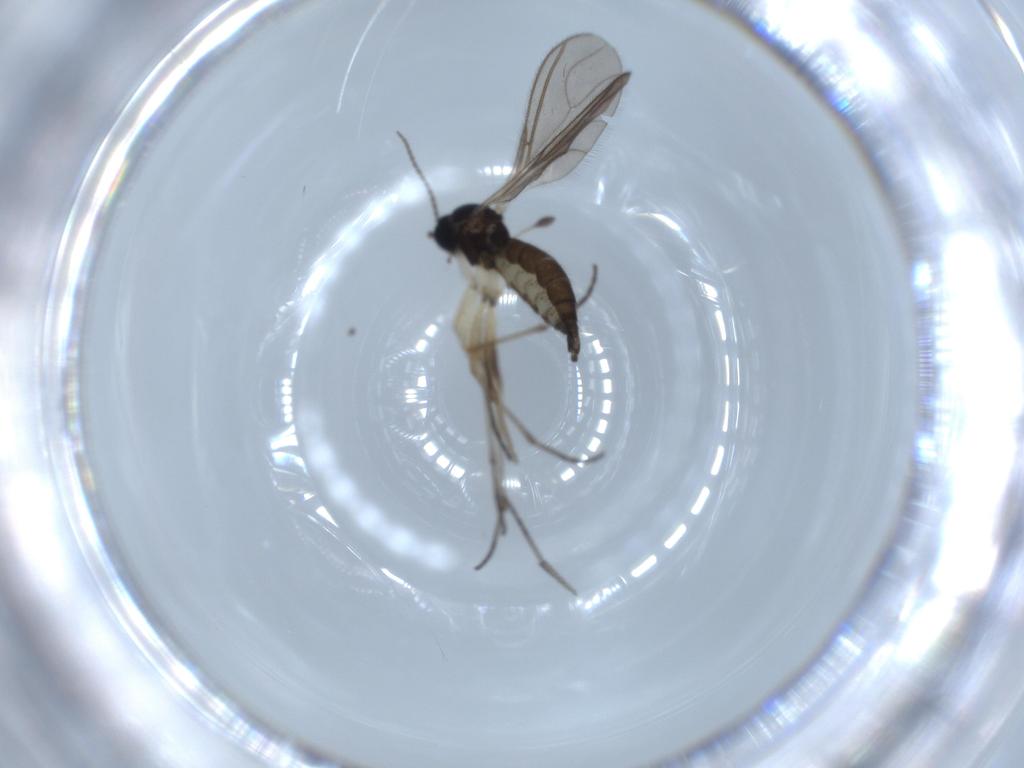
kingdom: Animalia
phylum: Arthropoda
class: Insecta
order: Diptera
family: Sciaridae
